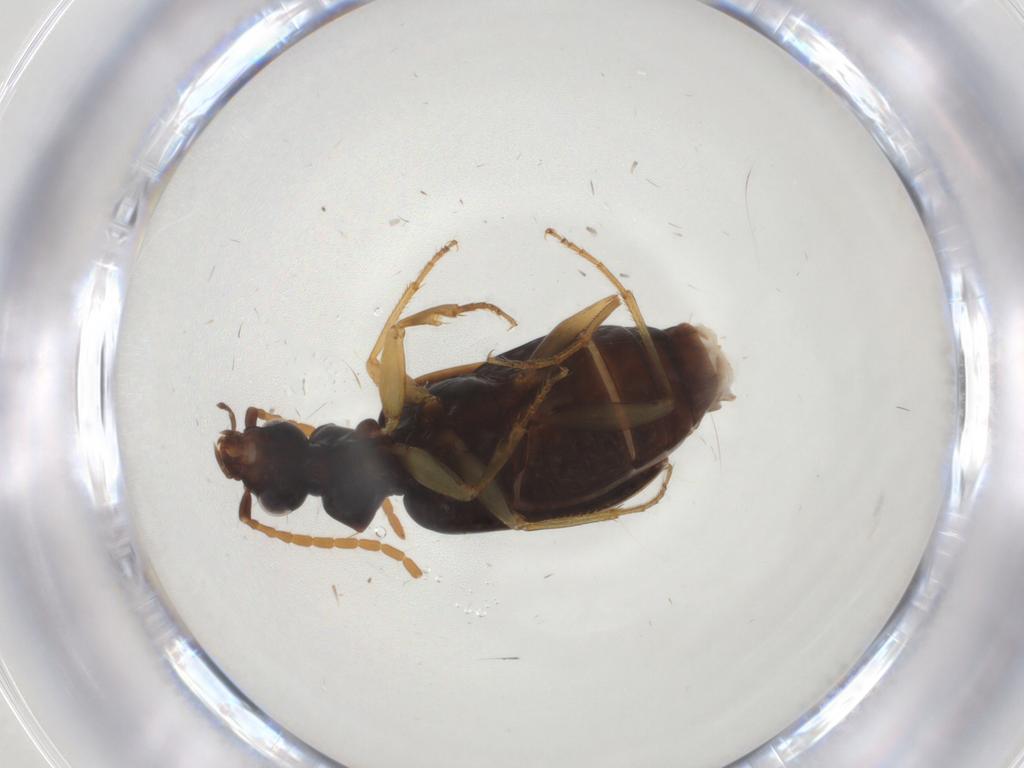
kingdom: Animalia
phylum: Arthropoda
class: Insecta
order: Coleoptera
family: Carabidae
